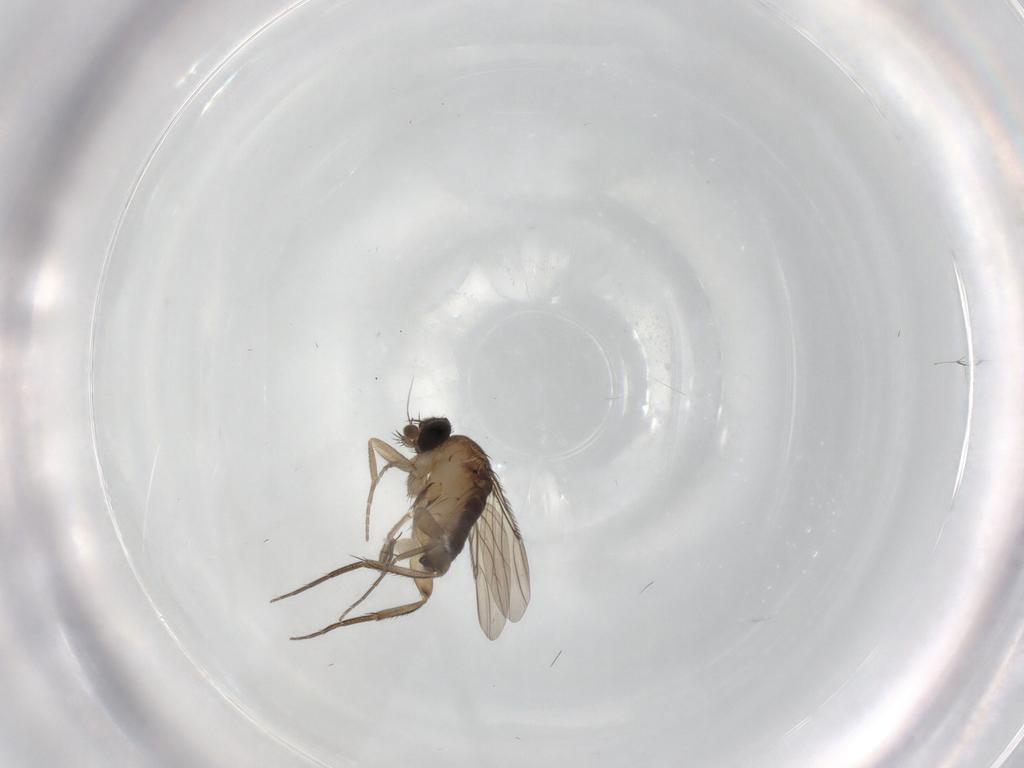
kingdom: Animalia
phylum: Arthropoda
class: Insecta
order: Diptera
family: Phoridae
